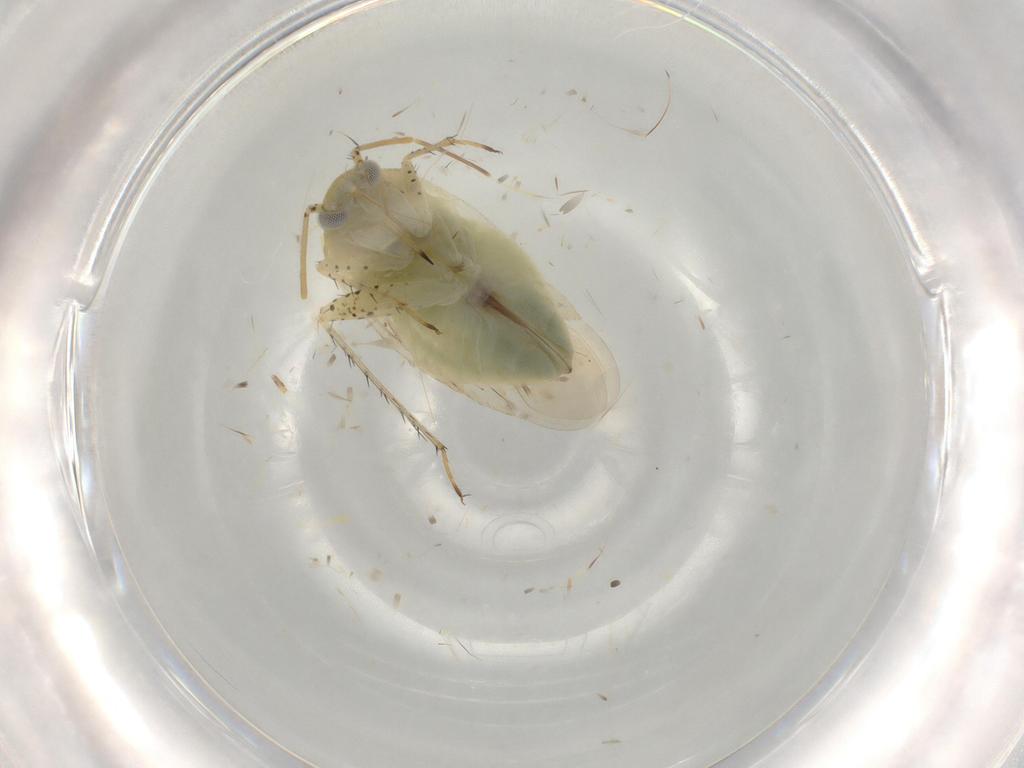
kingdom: Animalia
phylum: Arthropoda
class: Insecta
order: Hemiptera
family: Miridae
